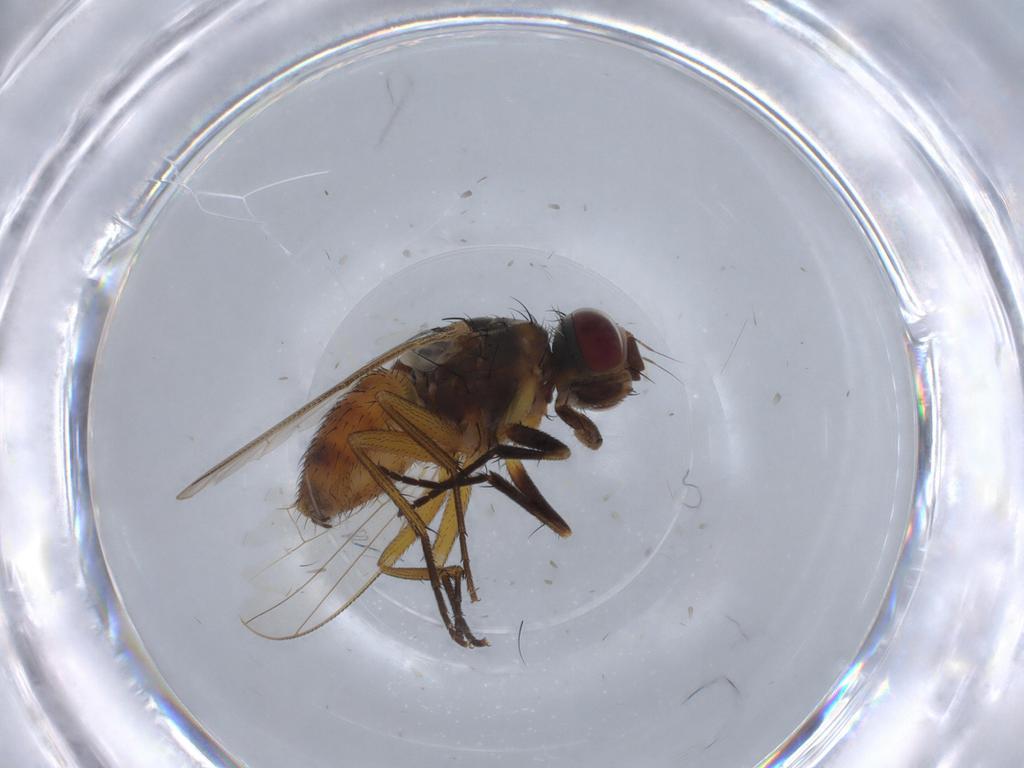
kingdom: Animalia
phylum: Arthropoda
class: Insecta
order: Diptera
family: Muscidae
